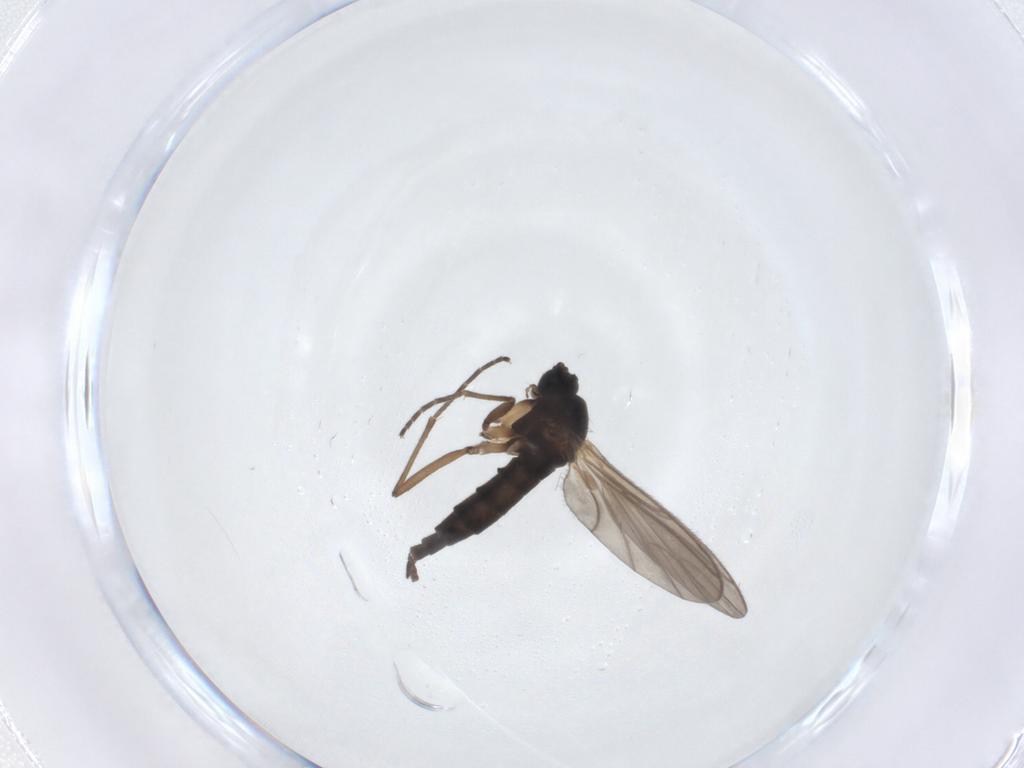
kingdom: Animalia
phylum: Arthropoda
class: Insecta
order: Diptera
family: Sciaridae
